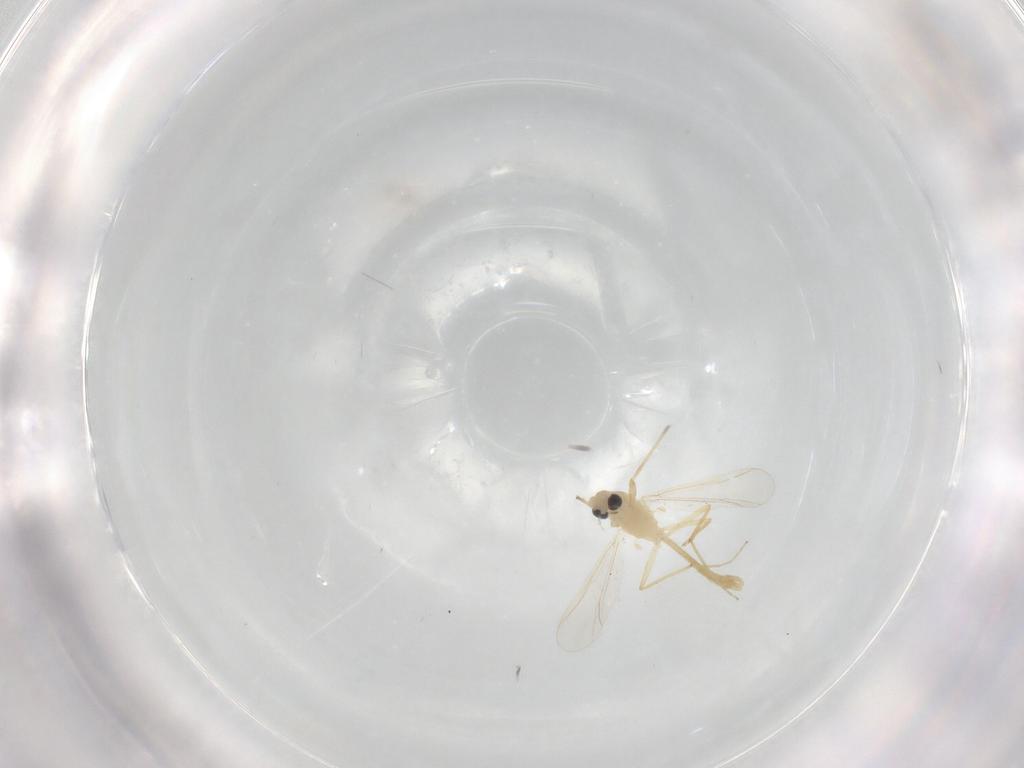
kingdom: Animalia
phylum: Arthropoda
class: Insecta
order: Diptera
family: Chironomidae
